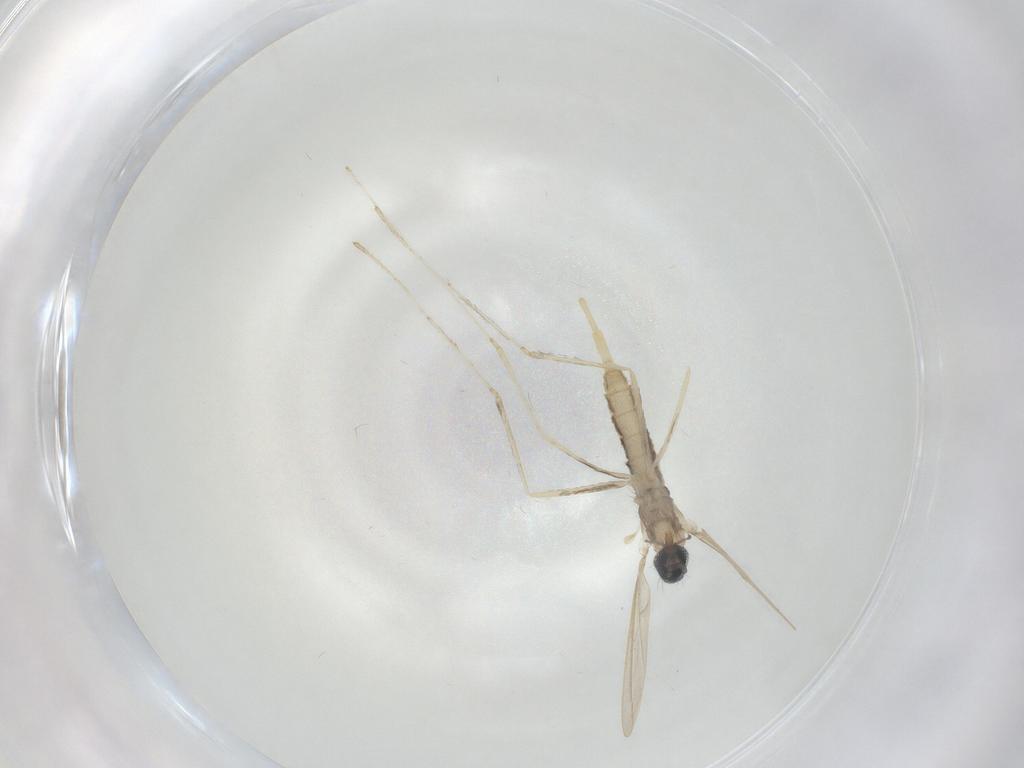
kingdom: Animalia
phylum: Arthropoda
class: Insecta
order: Diptera
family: Cecidomyiidae
